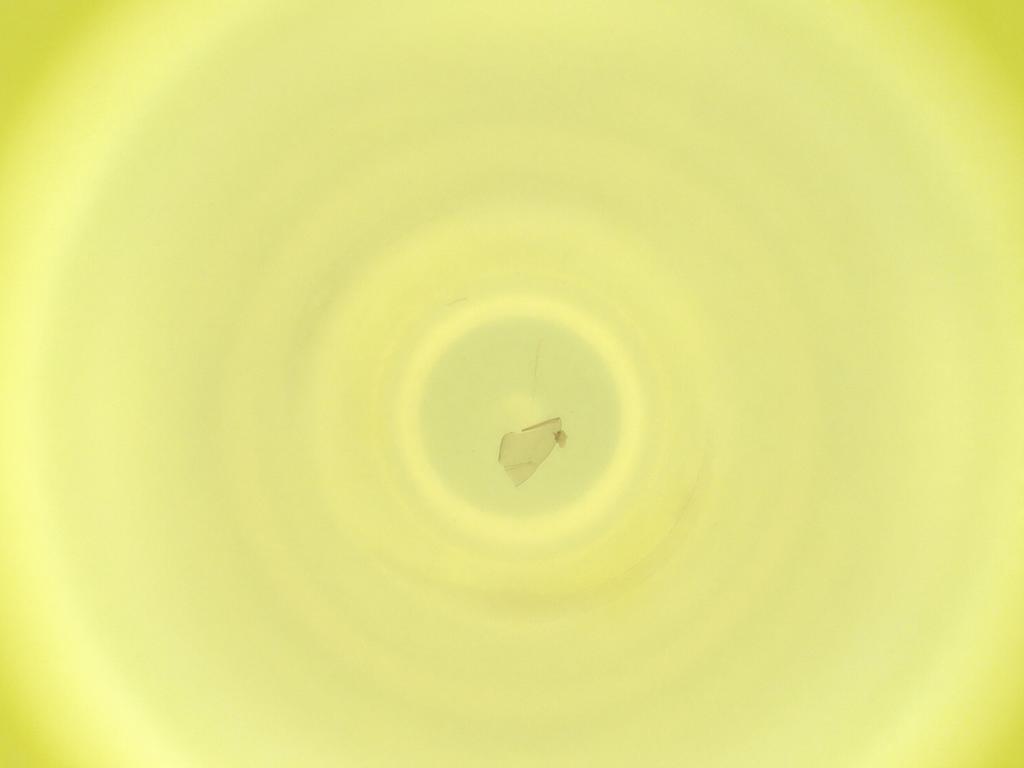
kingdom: Animalia
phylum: Arthropoda
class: Insecta
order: Diptera
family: Cecidomyiidae
